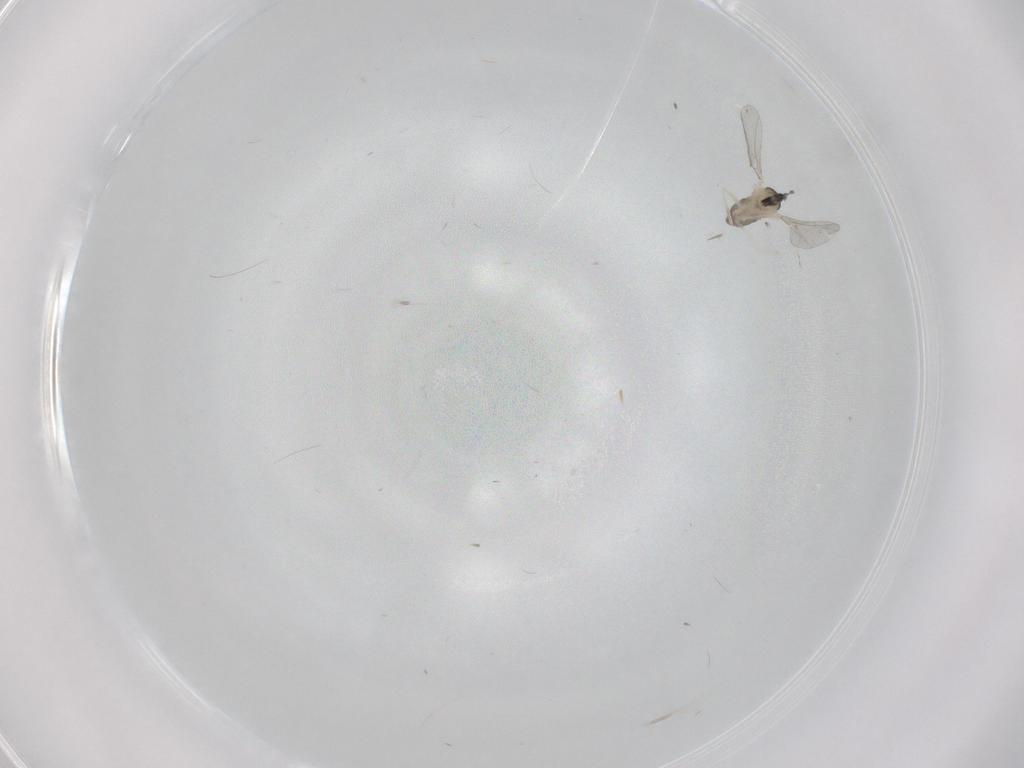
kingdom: Animalia
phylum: Arthropoda
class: Insecta
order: Diptera
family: Cecidomyiidae
